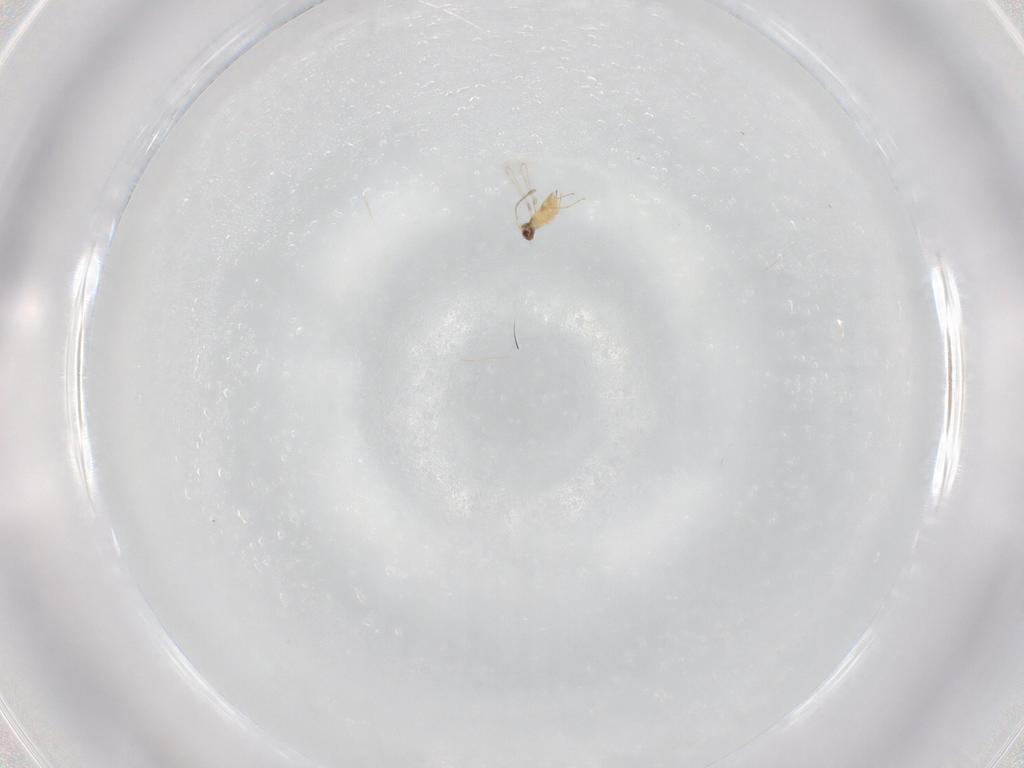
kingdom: Animalia
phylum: Arthropoda
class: Insecta
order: Hymenoptera
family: Mymaridae
